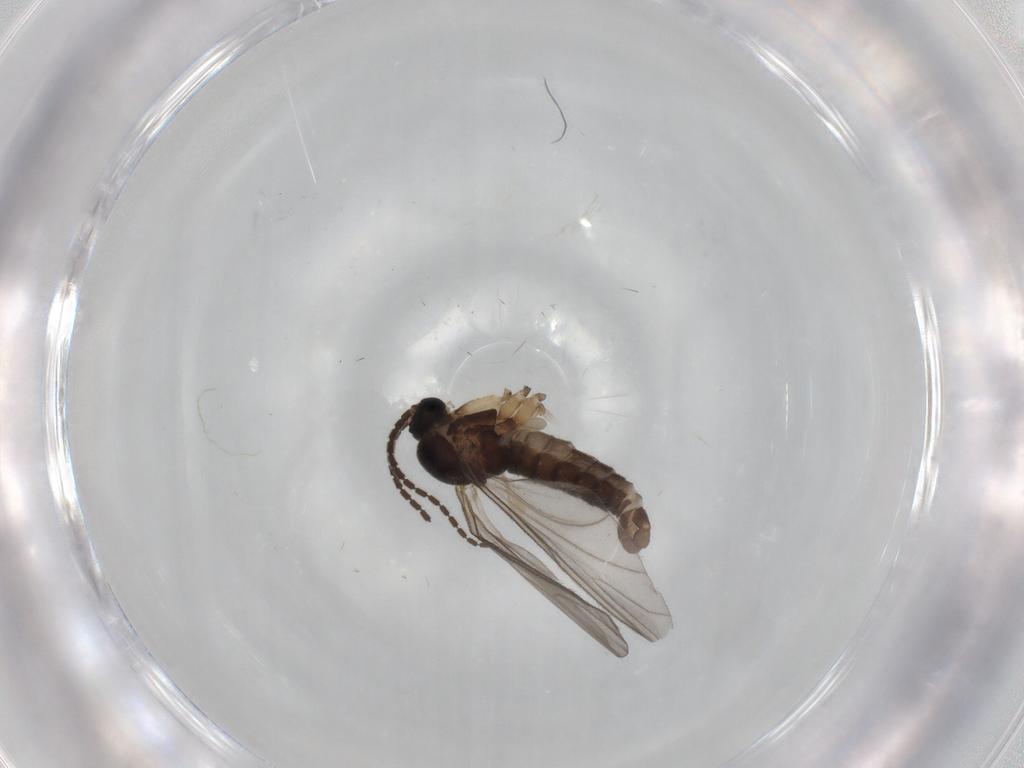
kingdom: Animalia
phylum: Arthropoda
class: Insecta
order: Diptera
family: Sciaridae
